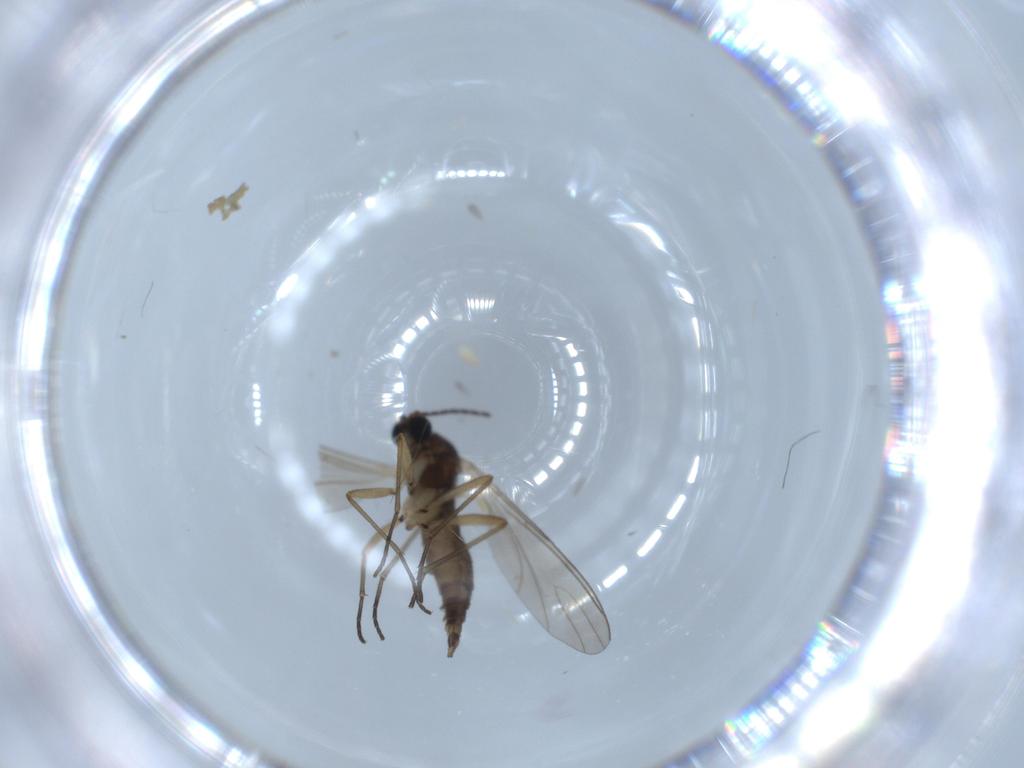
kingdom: Animalia
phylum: Arthropoda
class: Insecta
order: Diptera
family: Sciaridae
